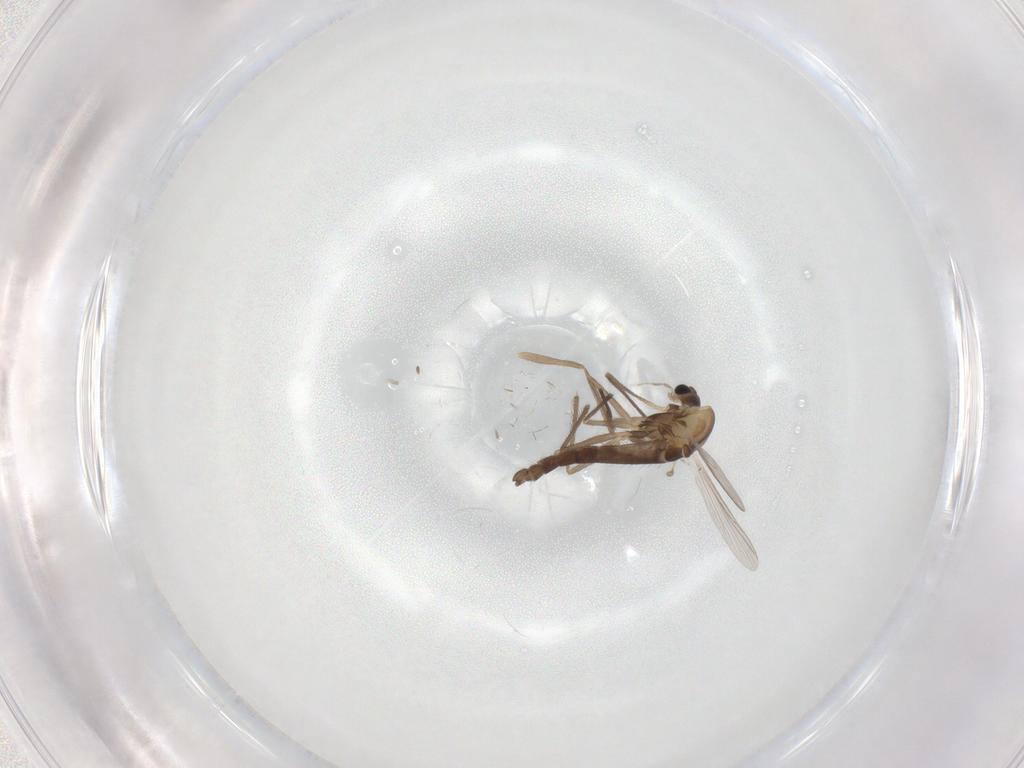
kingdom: Animalia
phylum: Arthropoda
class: Insecta
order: Diptera
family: Chironomidae
